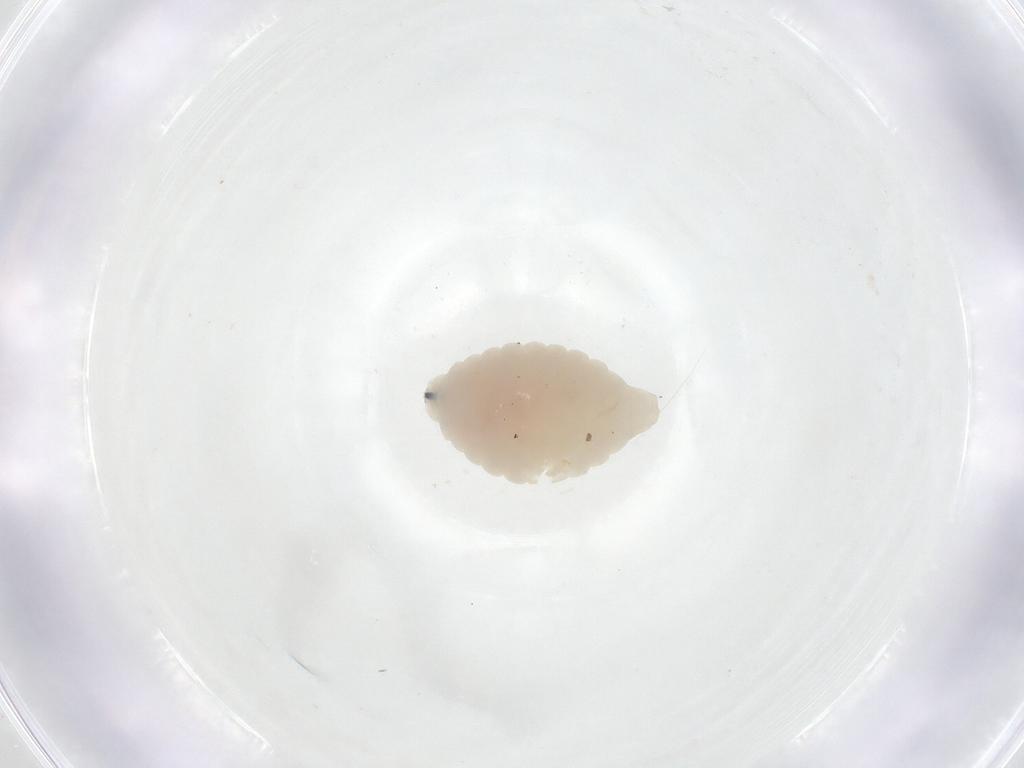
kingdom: Animalia
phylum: Arthropoda
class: Insecta
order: Diptera
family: Fergusoninidae
